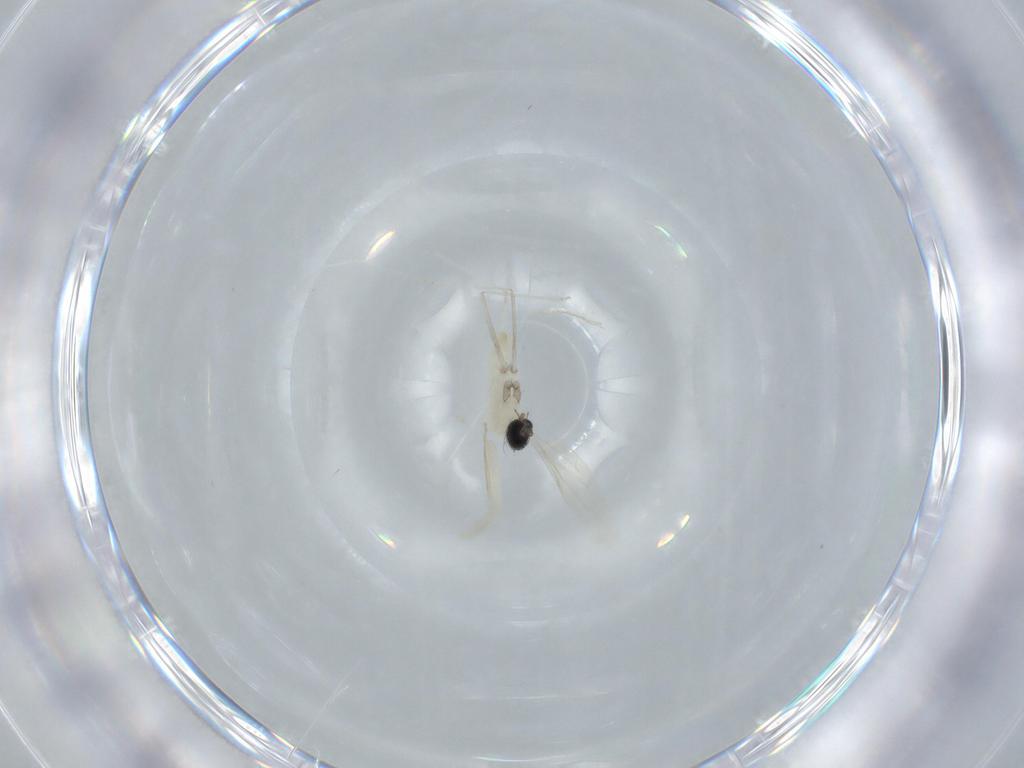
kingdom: Animalia
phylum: Arthropoda
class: Insecta
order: Diptera
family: Cecidomyiidae
